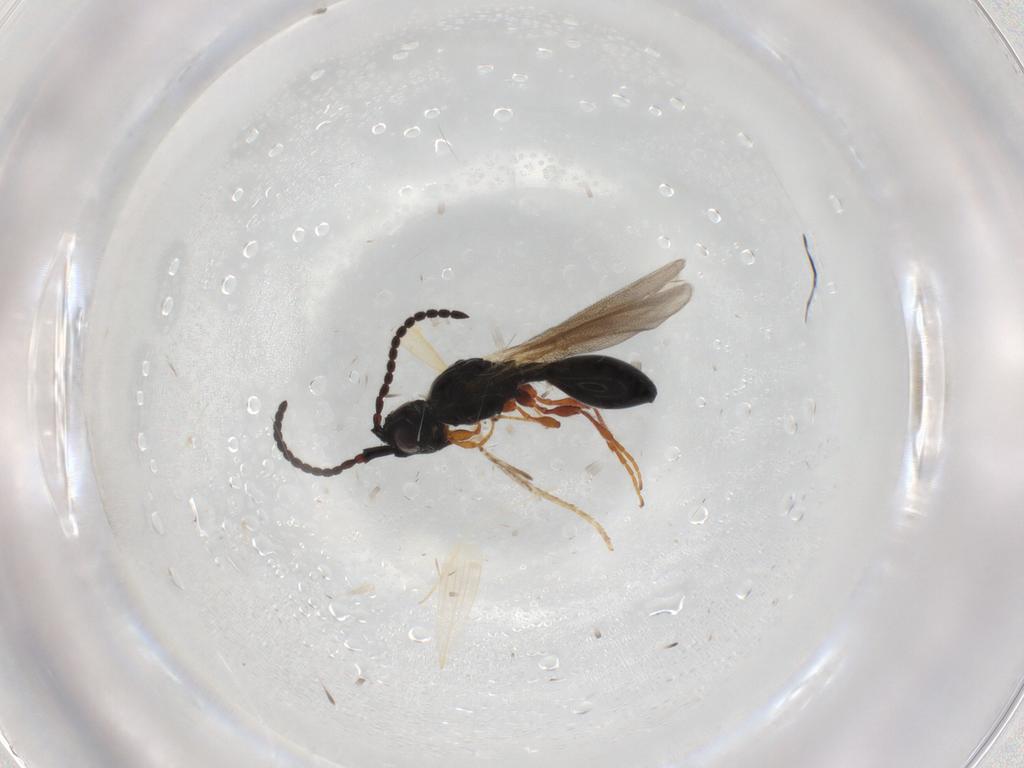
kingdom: Animalia
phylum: Arthropoda
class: Insecta
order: Hymenoptera
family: Scelionidae
